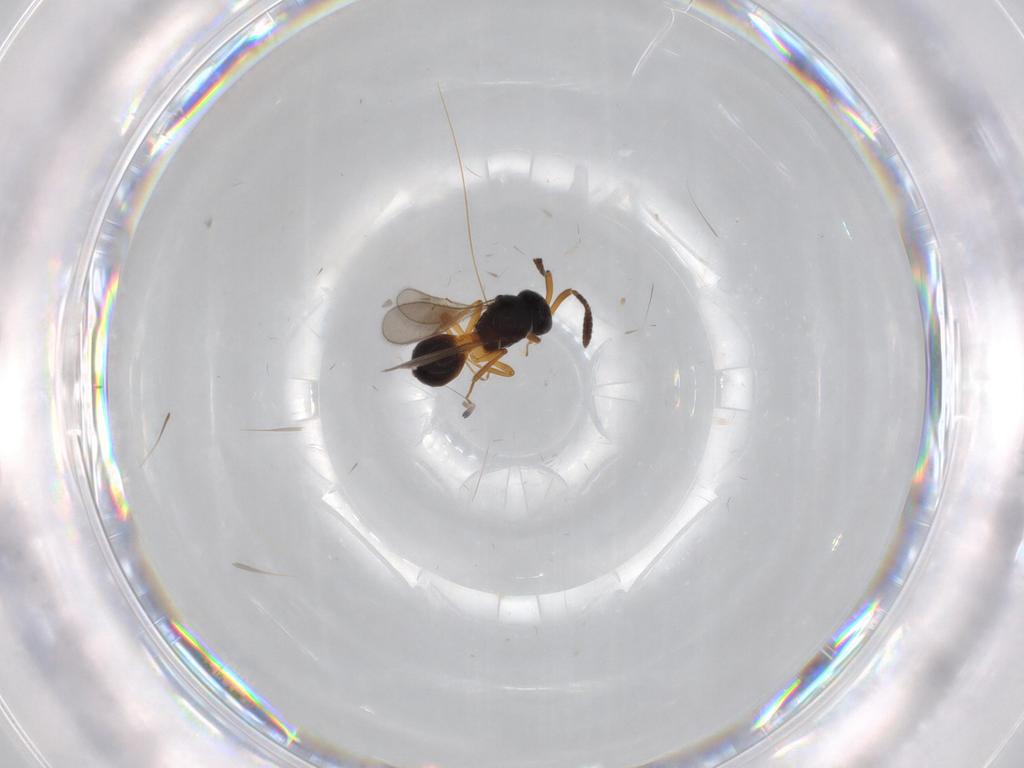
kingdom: Animalia
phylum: Arthropoda
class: Insecta
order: Hymenoptera
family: Scelionidae
